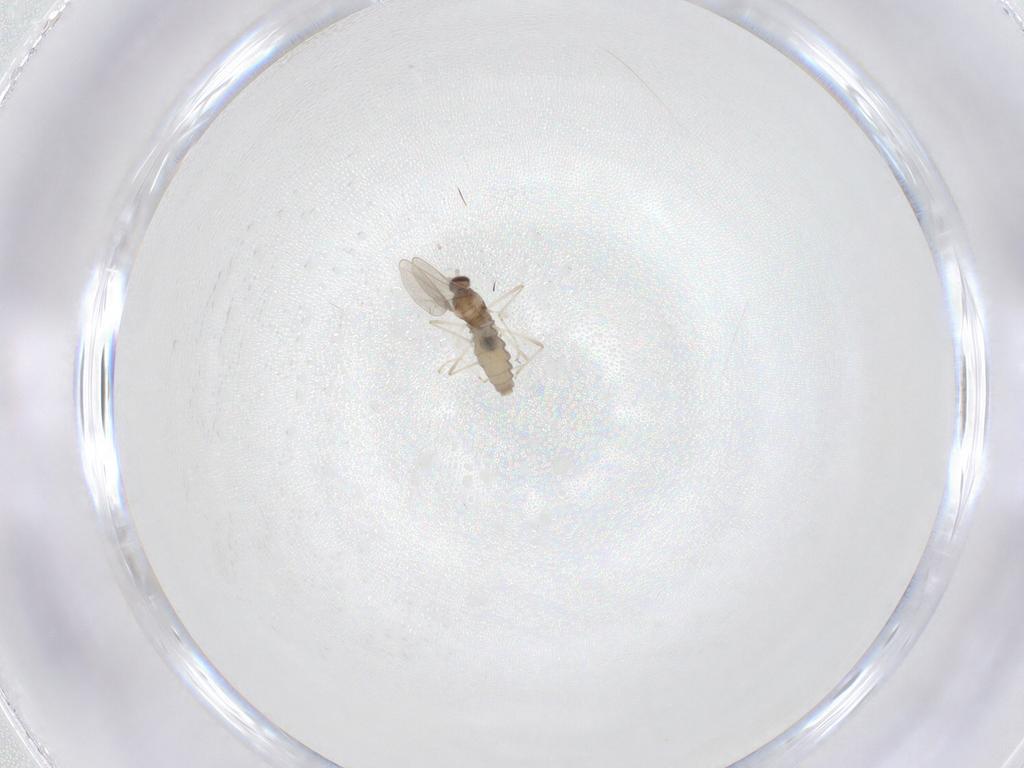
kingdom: Animalia
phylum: Arthropoda
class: Insecta
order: Diptera
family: Cecidomyiidae
